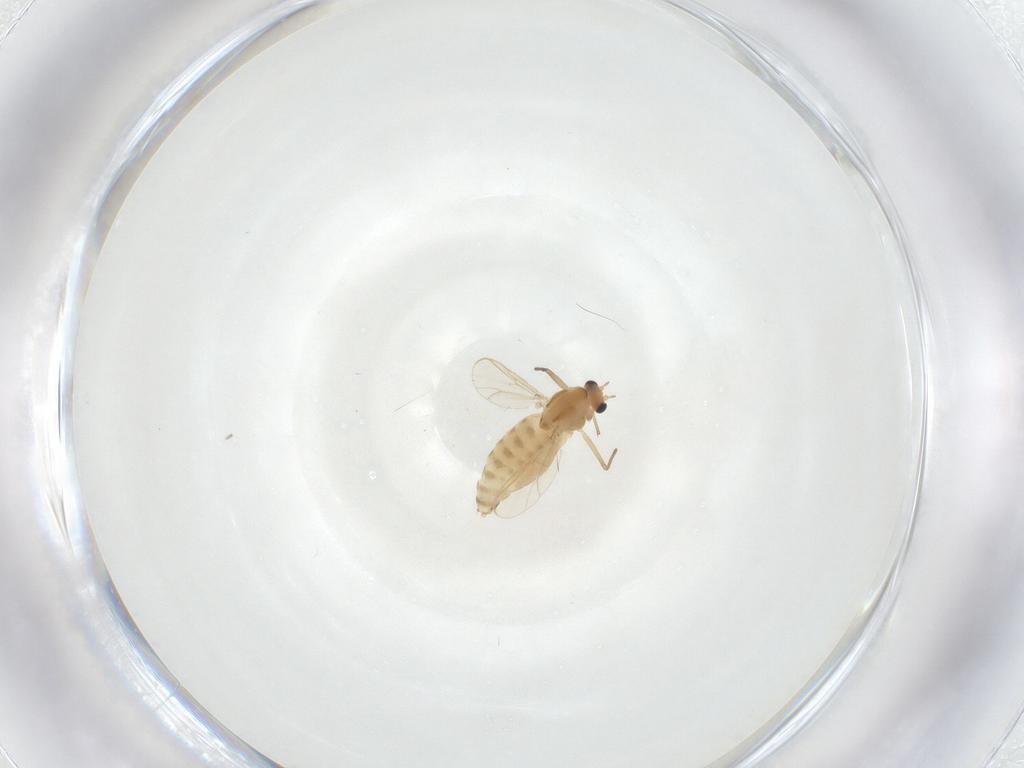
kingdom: Animalia
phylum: Arthropoda
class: Insecta
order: Diptera
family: Chironomidae
